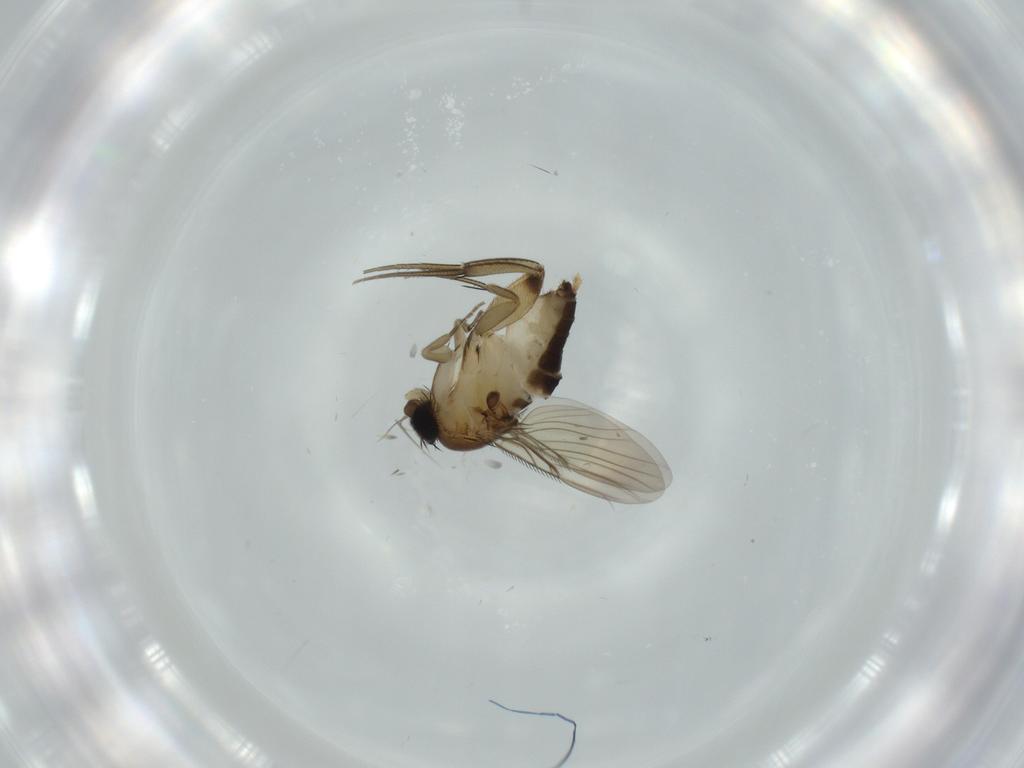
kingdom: Animalia
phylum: Arthropoda
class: Insecta
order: Diptera
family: Phoridae
